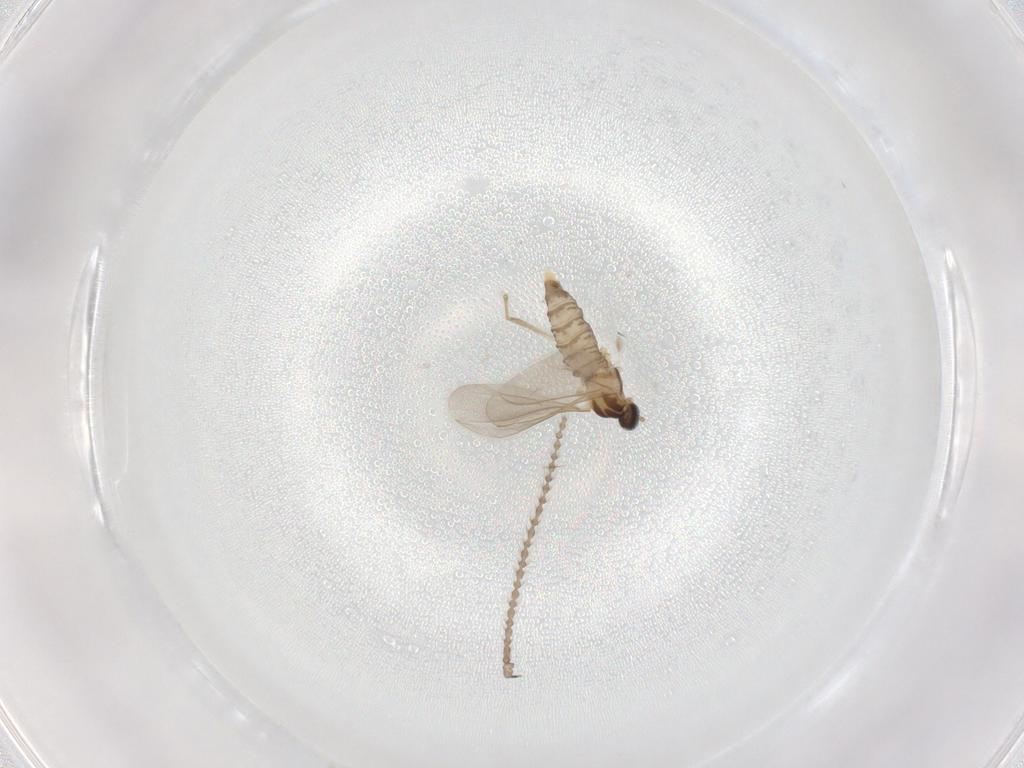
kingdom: Animalia
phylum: Arthropoda
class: Insecta
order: Diptera
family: Cecidomyiidae
